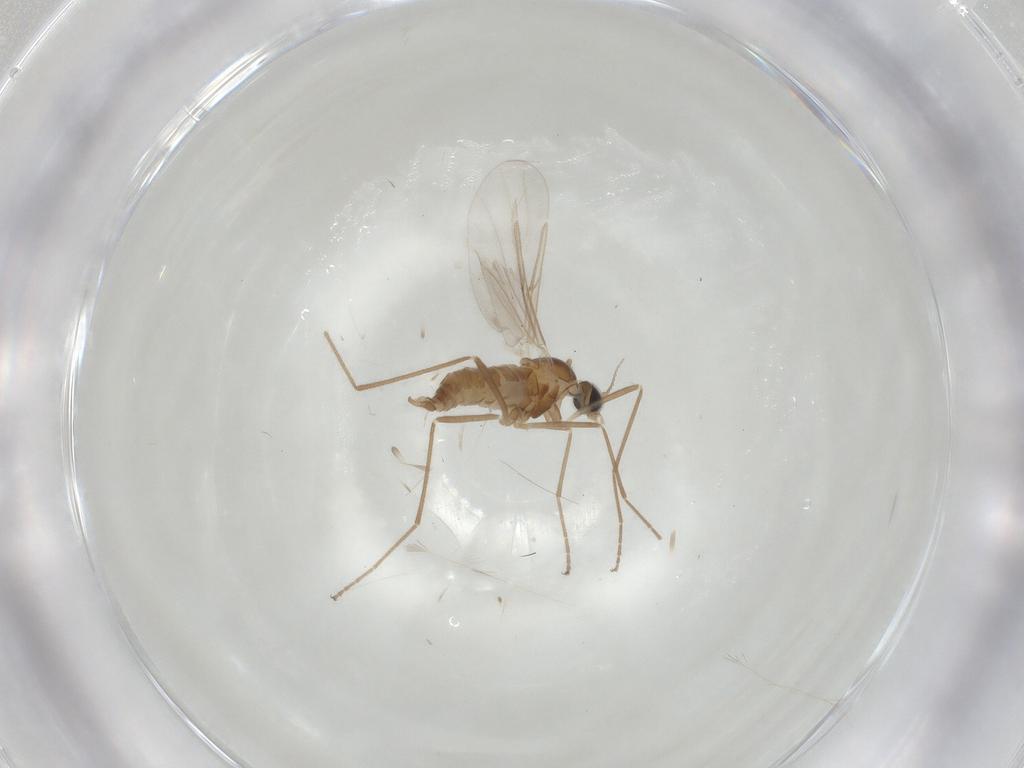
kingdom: Animalia
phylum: Arthropoda
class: Insecta
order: Diptera
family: Cecidomyiidae
